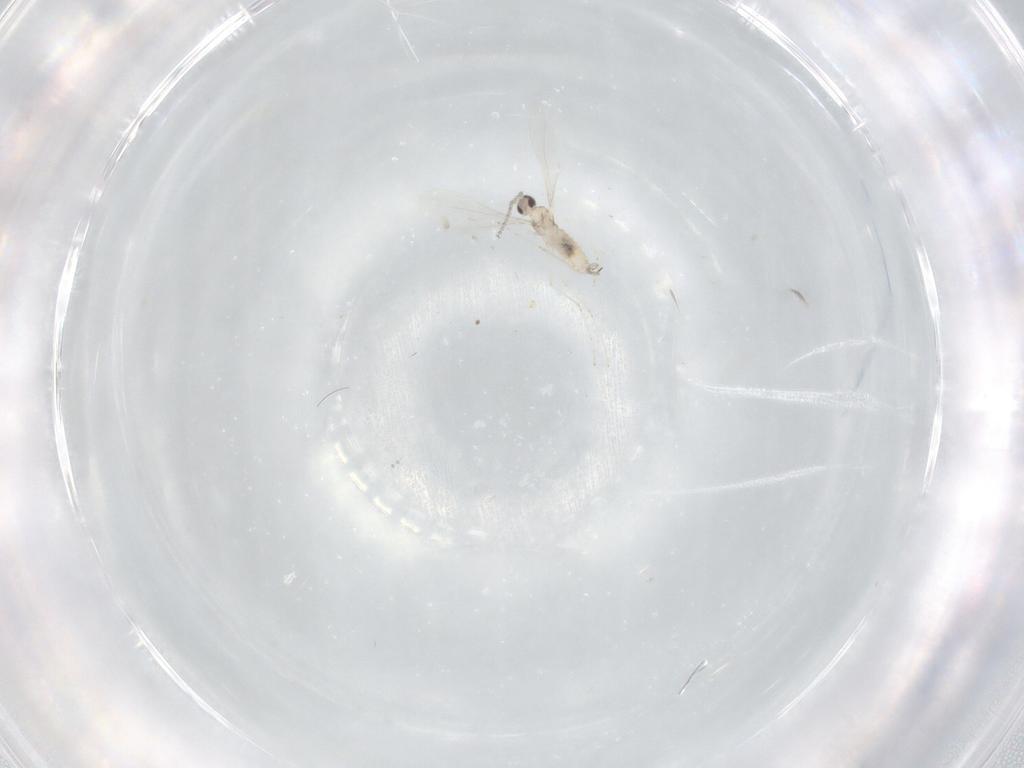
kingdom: Animalia
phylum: Arthropoda
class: Insecta
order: Diptera
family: Cecidomyiidae
